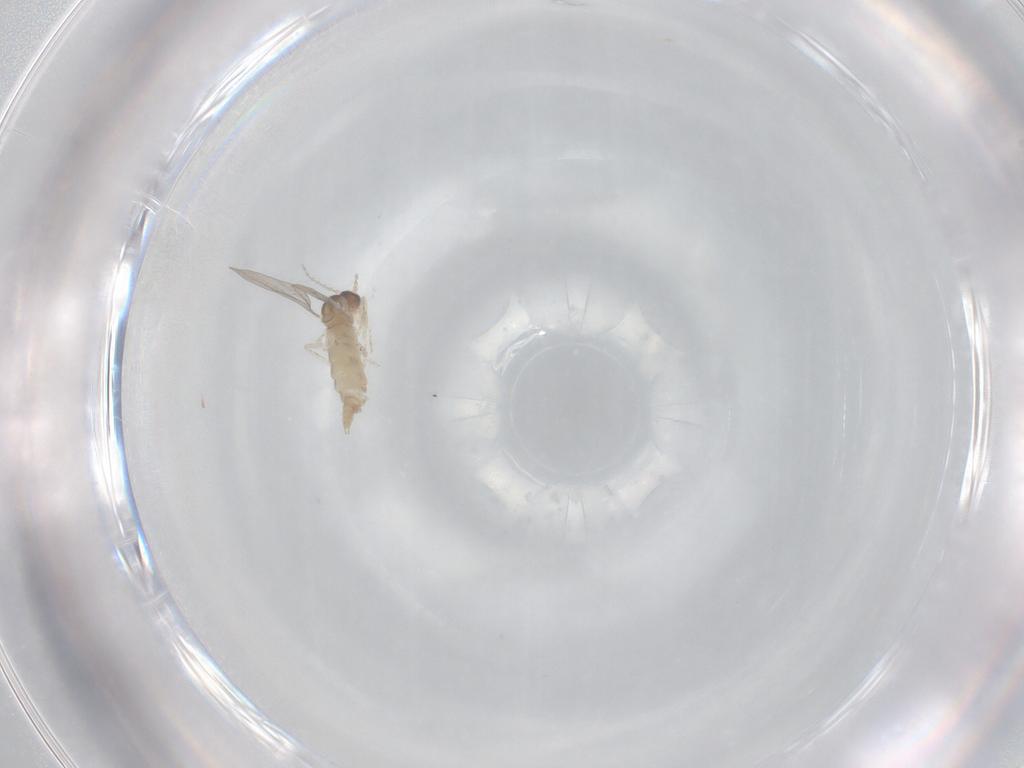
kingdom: Animalia
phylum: Arthropoda
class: Insecta
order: Diptera
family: Cecidomyiidae
